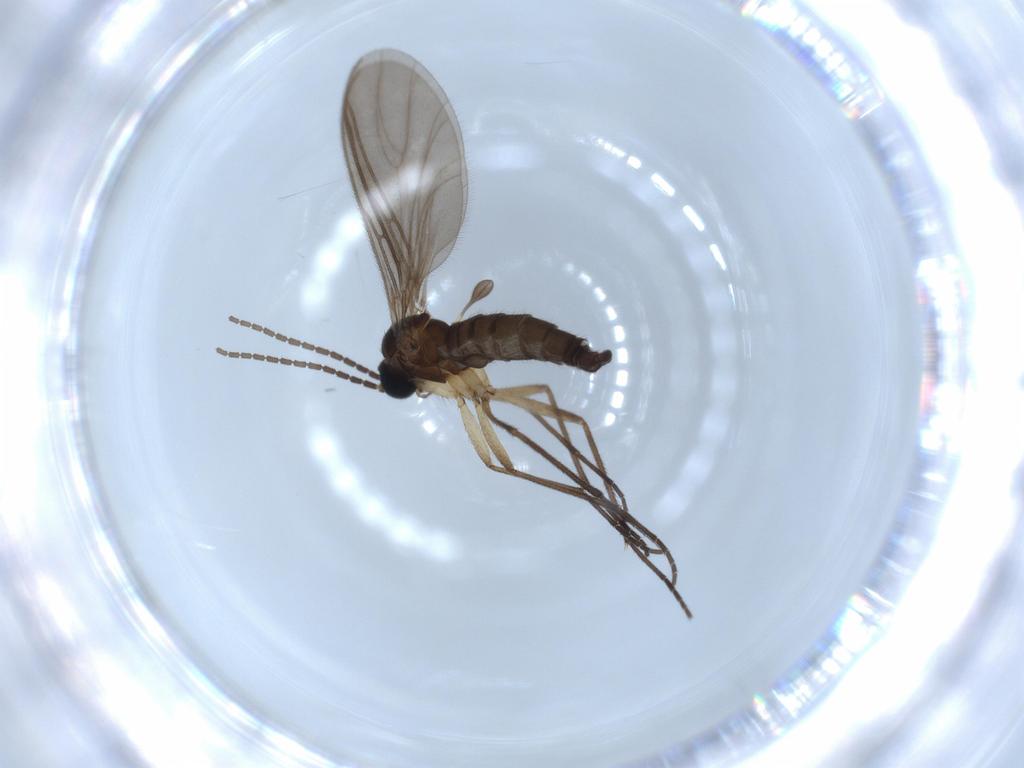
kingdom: Animalia
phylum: Arthropoda
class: Insecta
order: Diptera
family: Sciaridae
